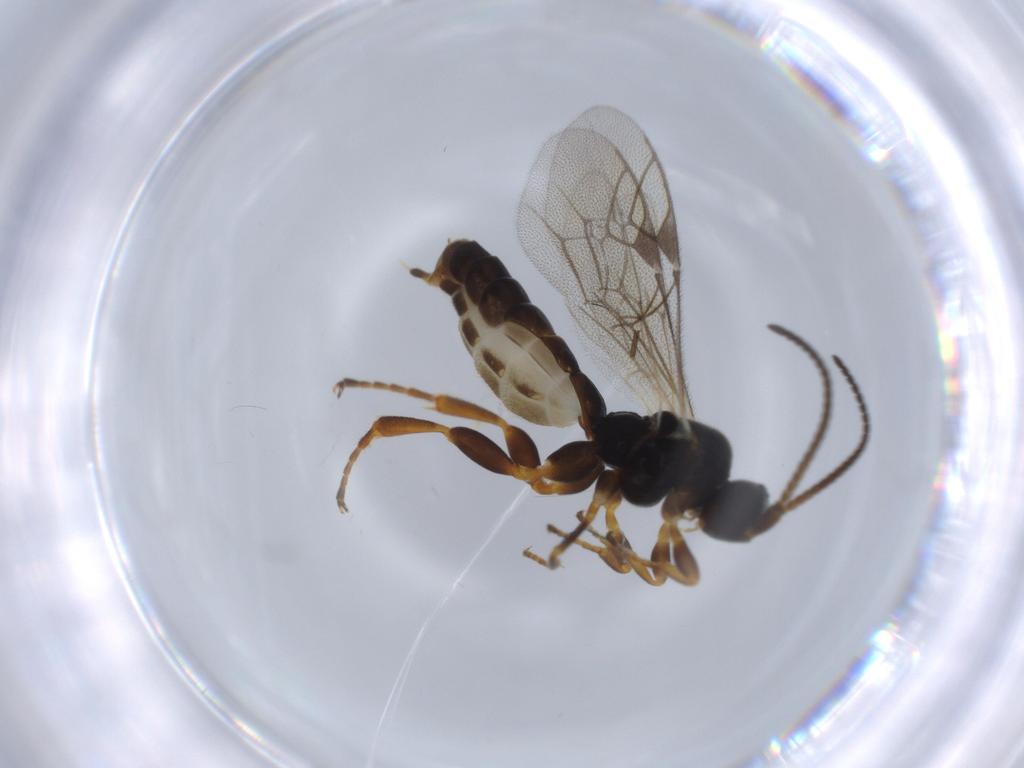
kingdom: Animalia
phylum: Arthropoda
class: Insecta
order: Hymenoptera
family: Ichneumonidae
